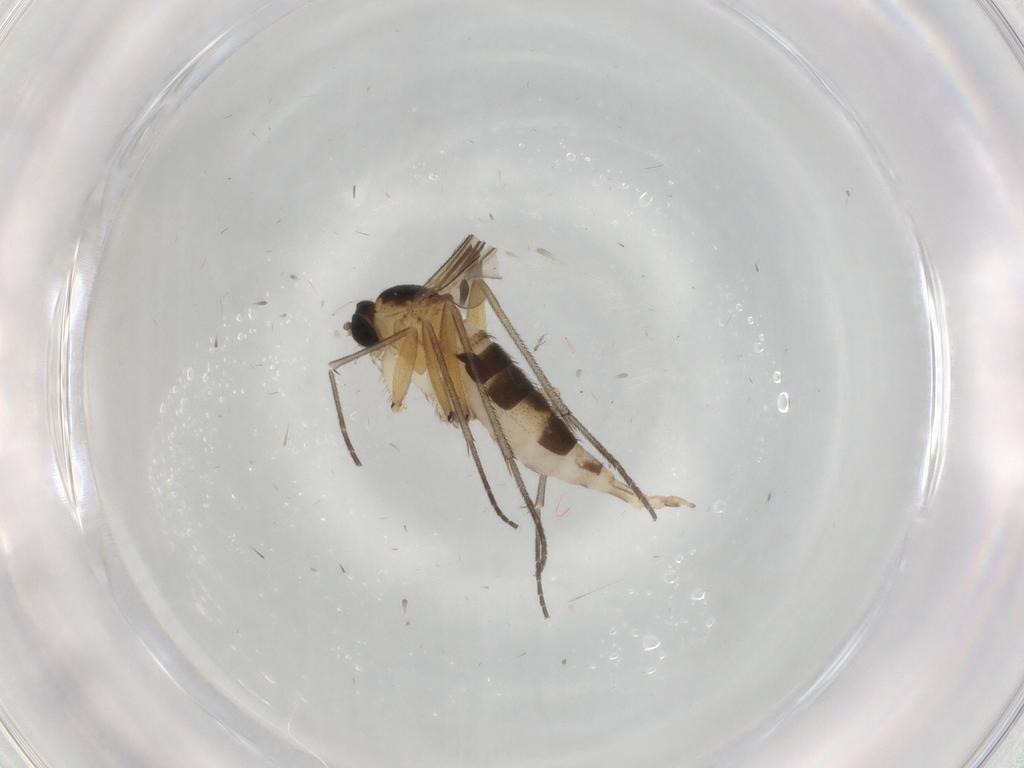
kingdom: Animalia
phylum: Arthropoda
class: Insecta
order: Diptera
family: Sciaridae
